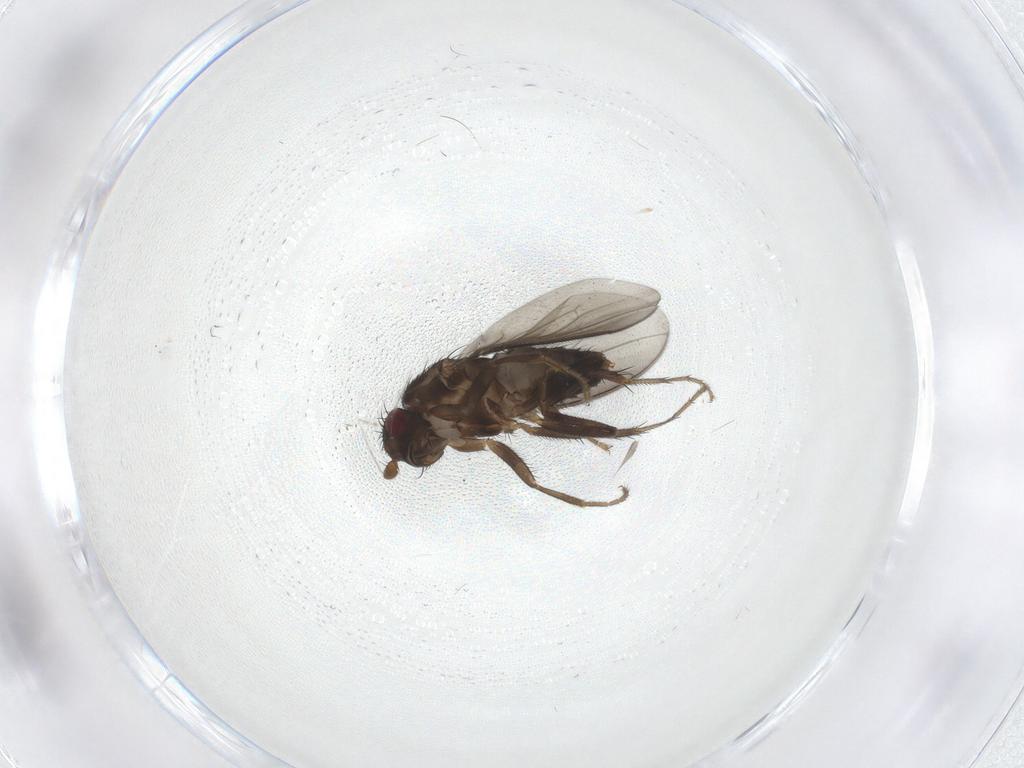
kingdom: Animalia
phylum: Arthropoda
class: Insecta
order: Diptera
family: Sphaeroceridae
